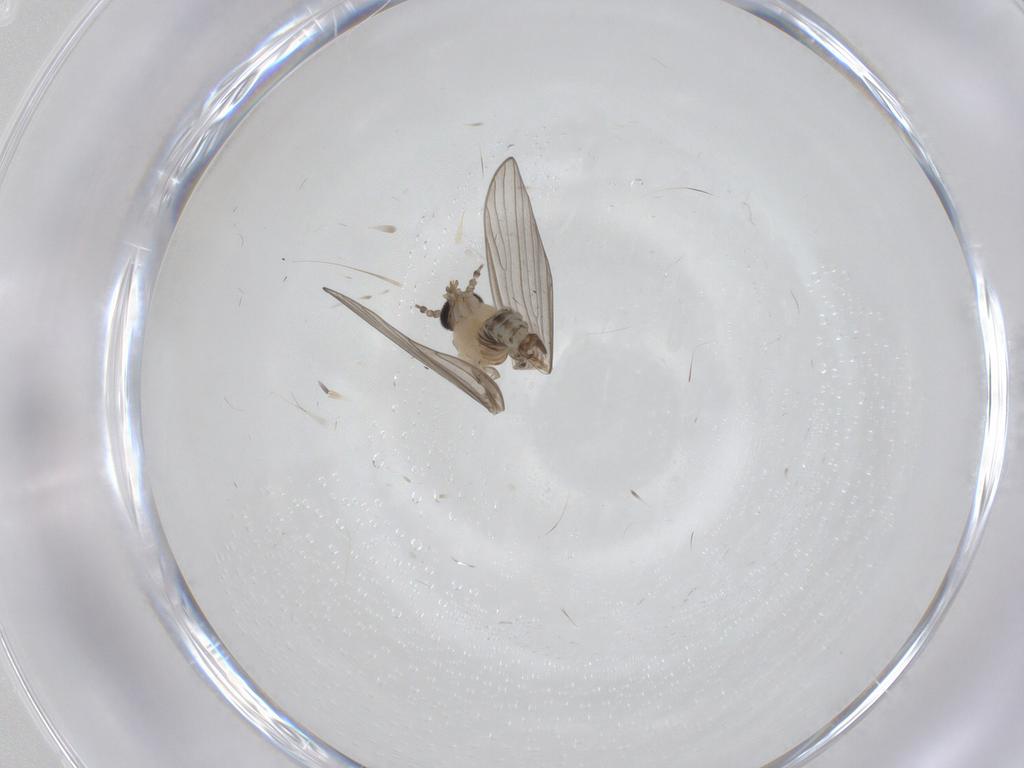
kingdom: Animalia
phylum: Arthropoda
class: Insecta
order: Diptera
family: Psychodidae
